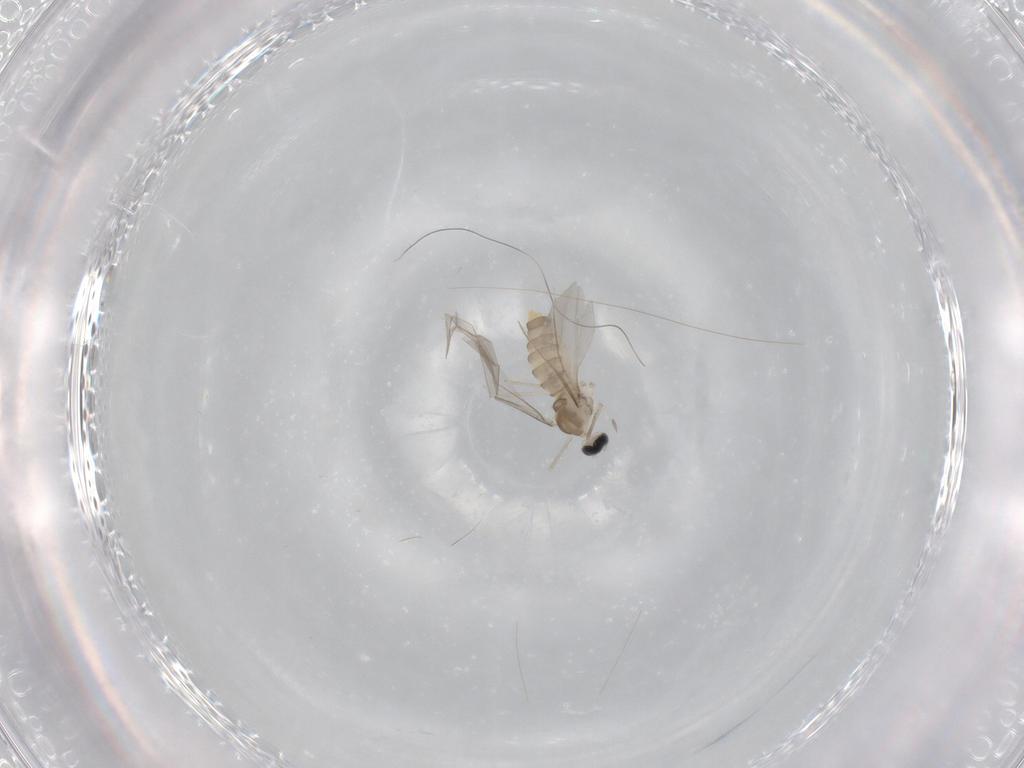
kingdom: Animalia
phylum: Arthropoda
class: Insecta
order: Diptera
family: Cecidomyiidae
